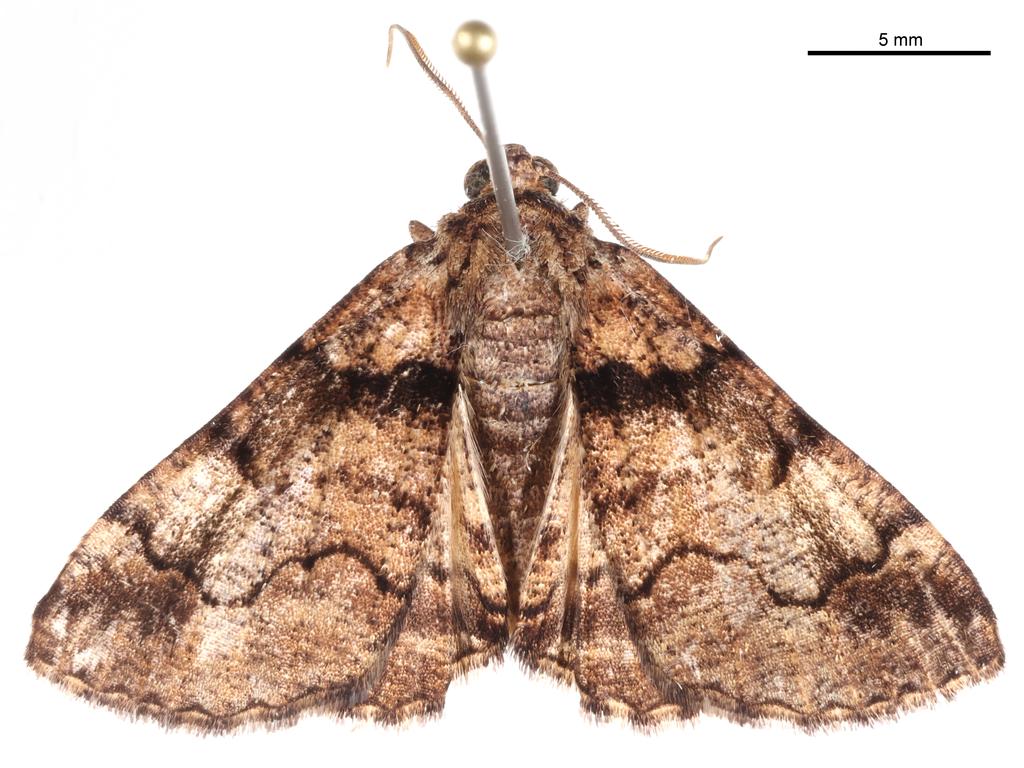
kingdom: Animalia
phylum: Arthropoda
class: Insecta
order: Lepidoptera
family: Geometridae
